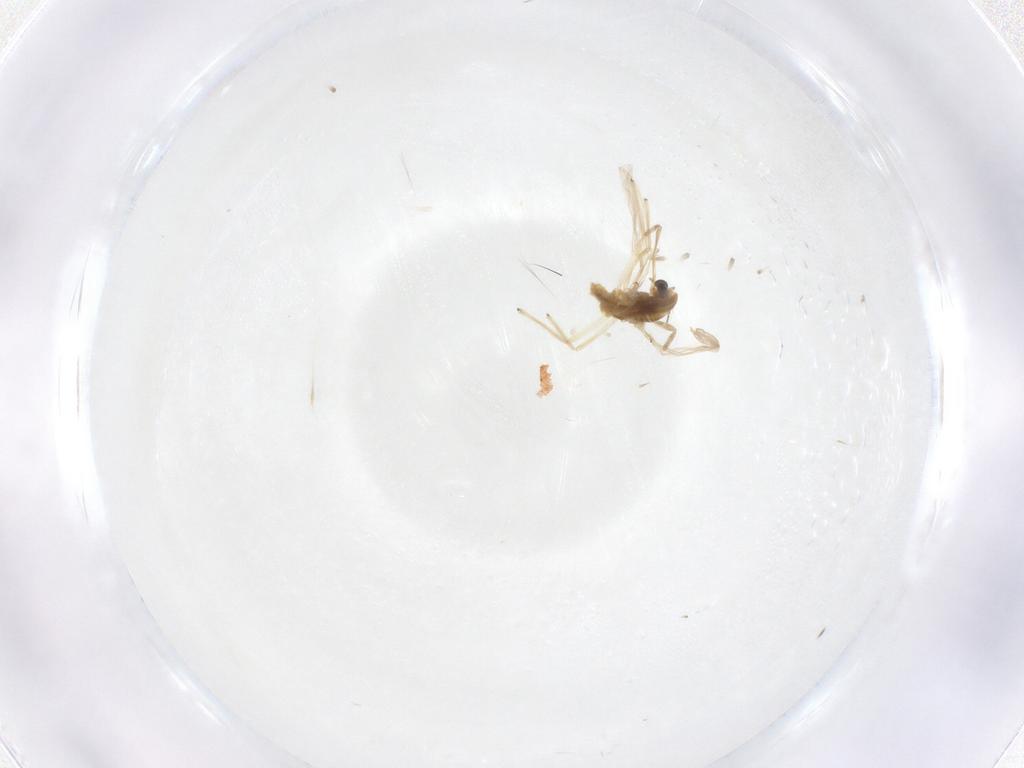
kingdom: Animalia
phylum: Arthropoda
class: Insecta
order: Diptera
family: Chironomidae
